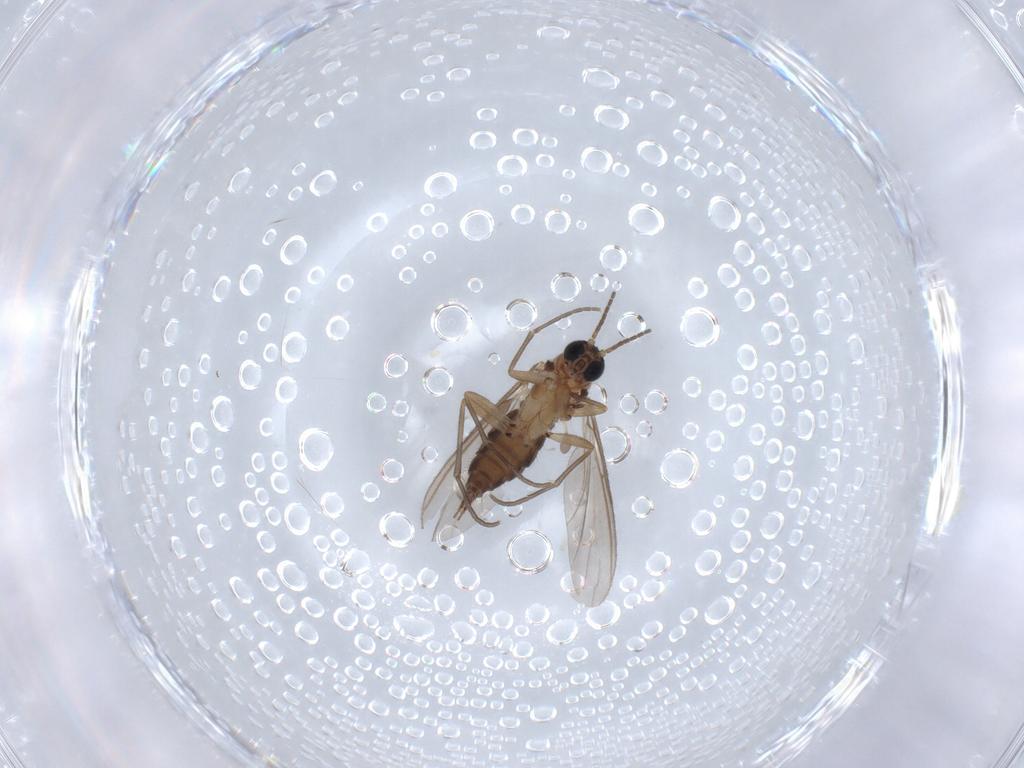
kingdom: Animalia
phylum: Arthropoda
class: Insecta
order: Diptera
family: Sciaridae
